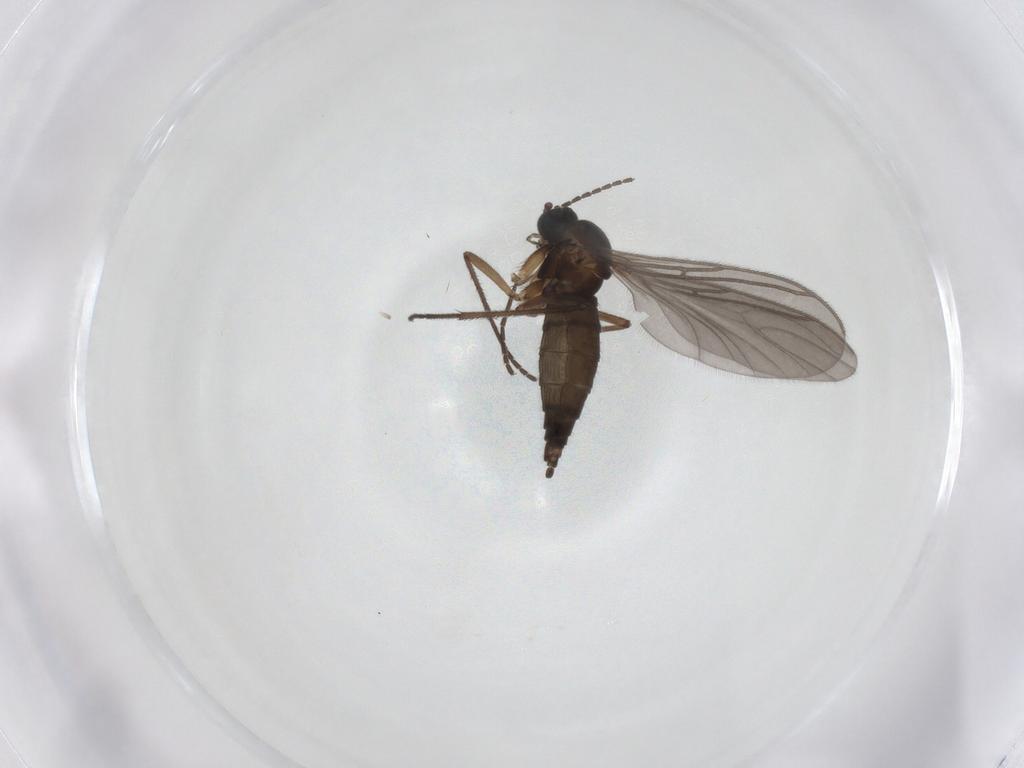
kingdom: Animalia
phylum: Arthropoda
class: Insecta
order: Diptera
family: Sciaridae
